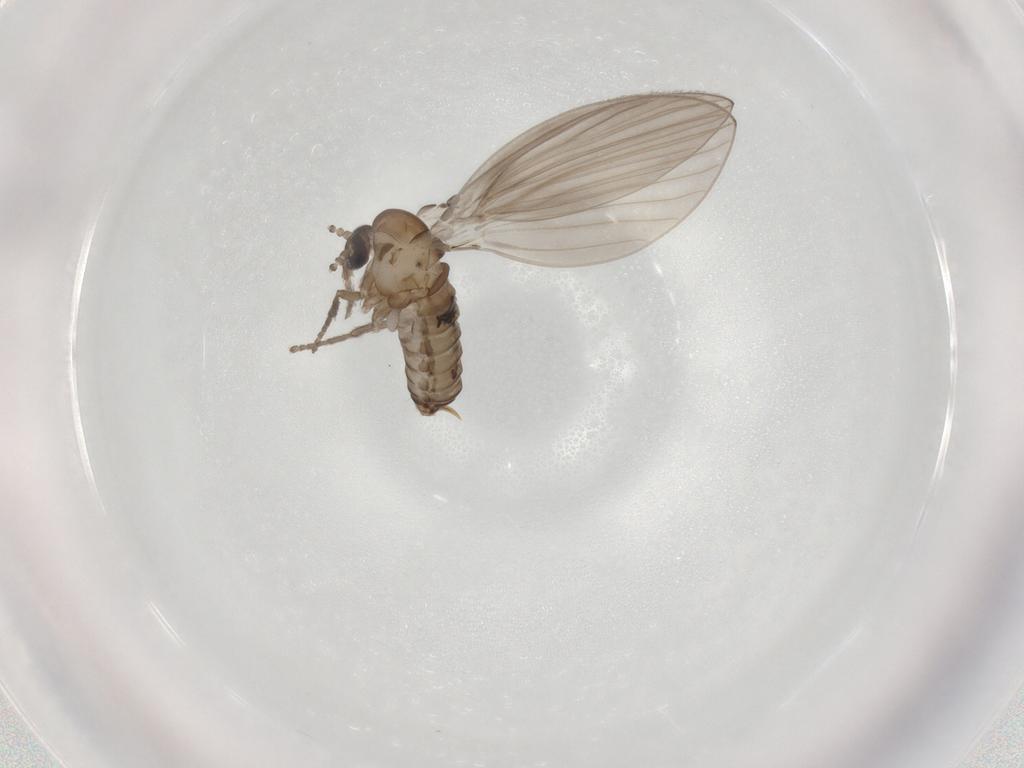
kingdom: Animalia
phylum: Arthropoda
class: Insecta
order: Diptera
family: Psychodidae
